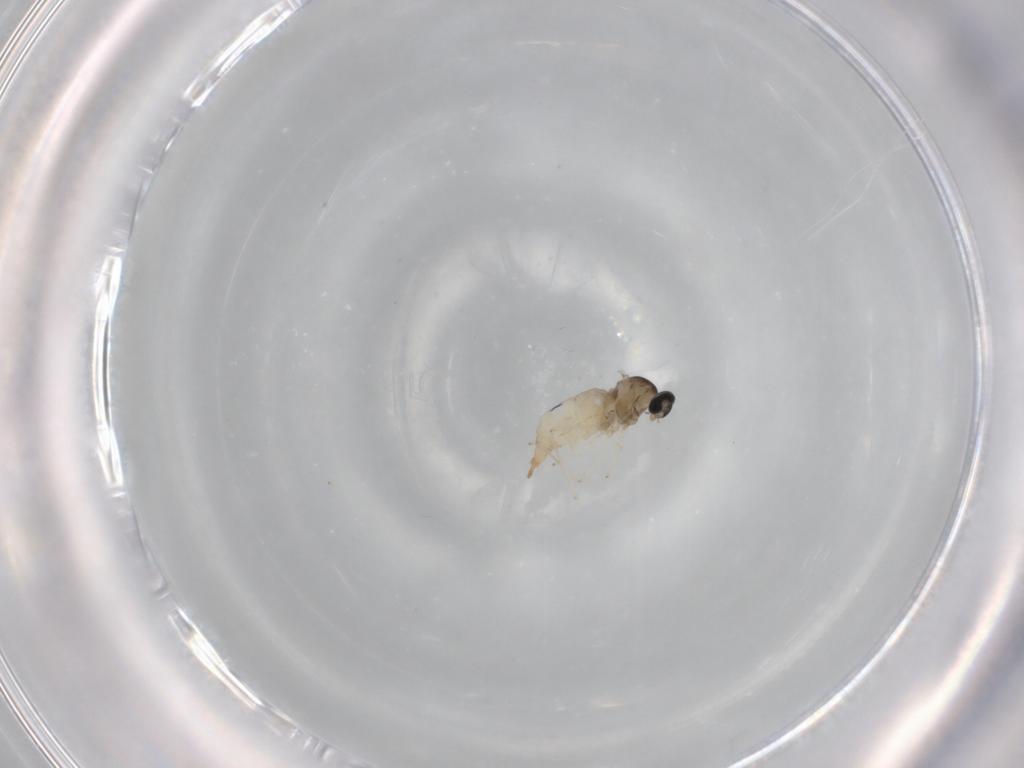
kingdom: Animalia
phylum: Arthropoda
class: Insecta
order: Diptera
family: Cecidomyiidae
